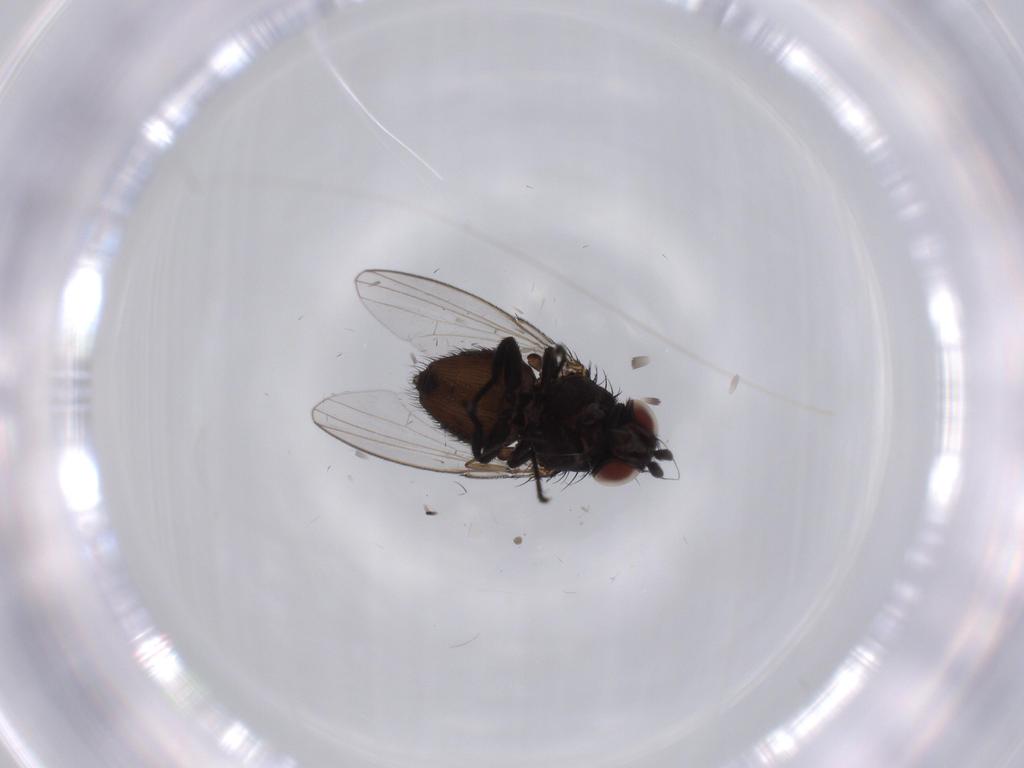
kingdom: Animalia
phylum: Arthropoda
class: Insecta
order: Diptera
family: Milichiidae
